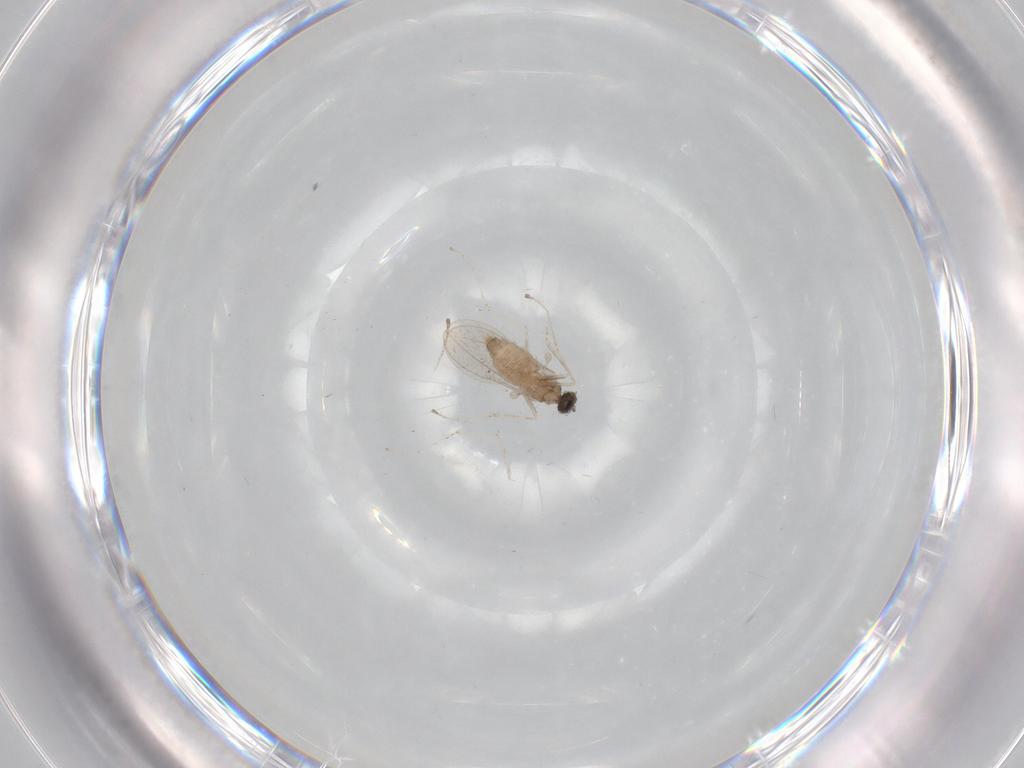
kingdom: Animalia
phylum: Arthropoda
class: Insecta
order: Diptera
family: Cecidomyiidae
